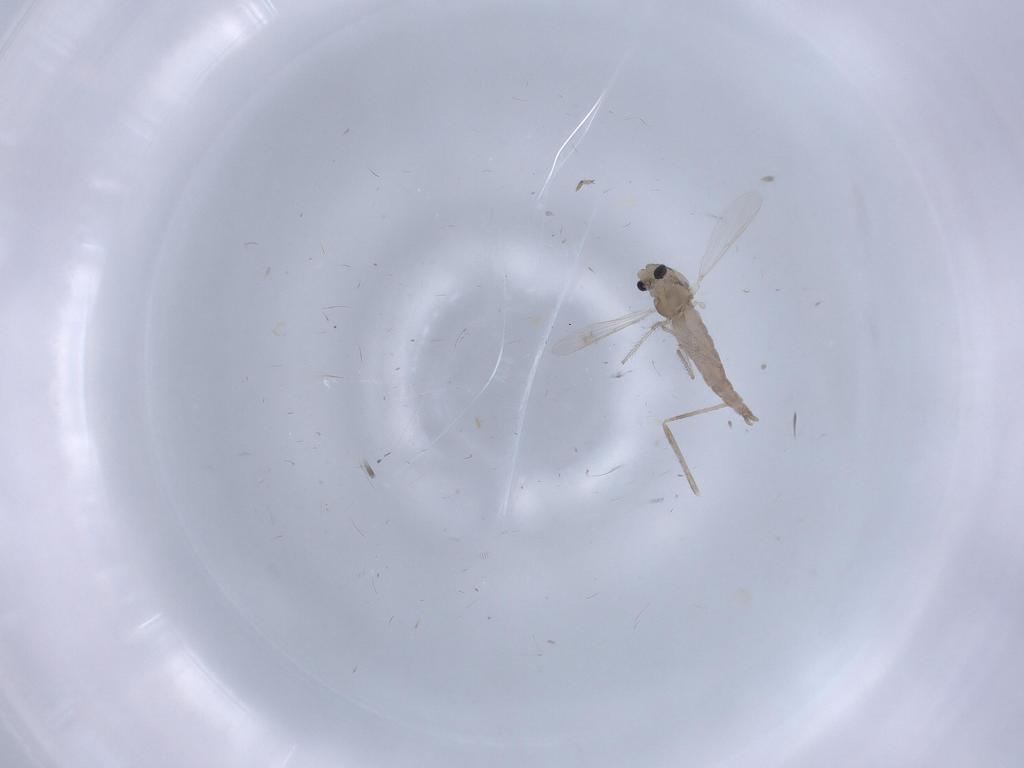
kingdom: Animalia
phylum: Arthropoda
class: Insecta
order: Diptera
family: Chironomidae
